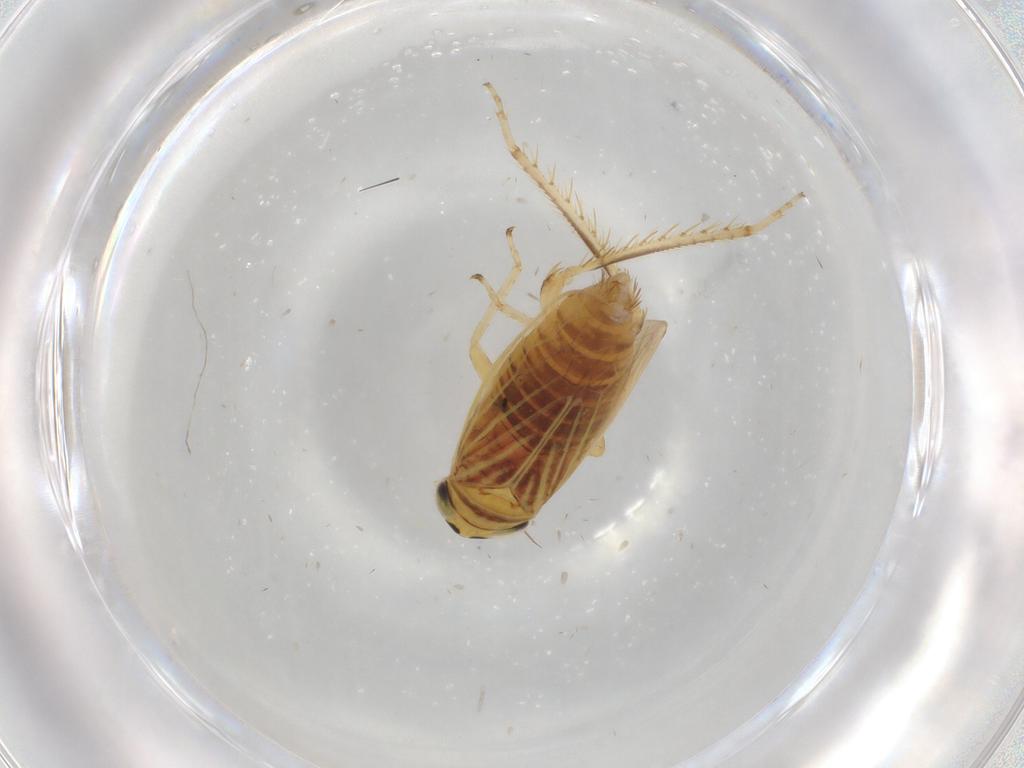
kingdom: Animalia
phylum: Arthropoda
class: Insecta
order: Hemiptera
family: Cicadellidae
